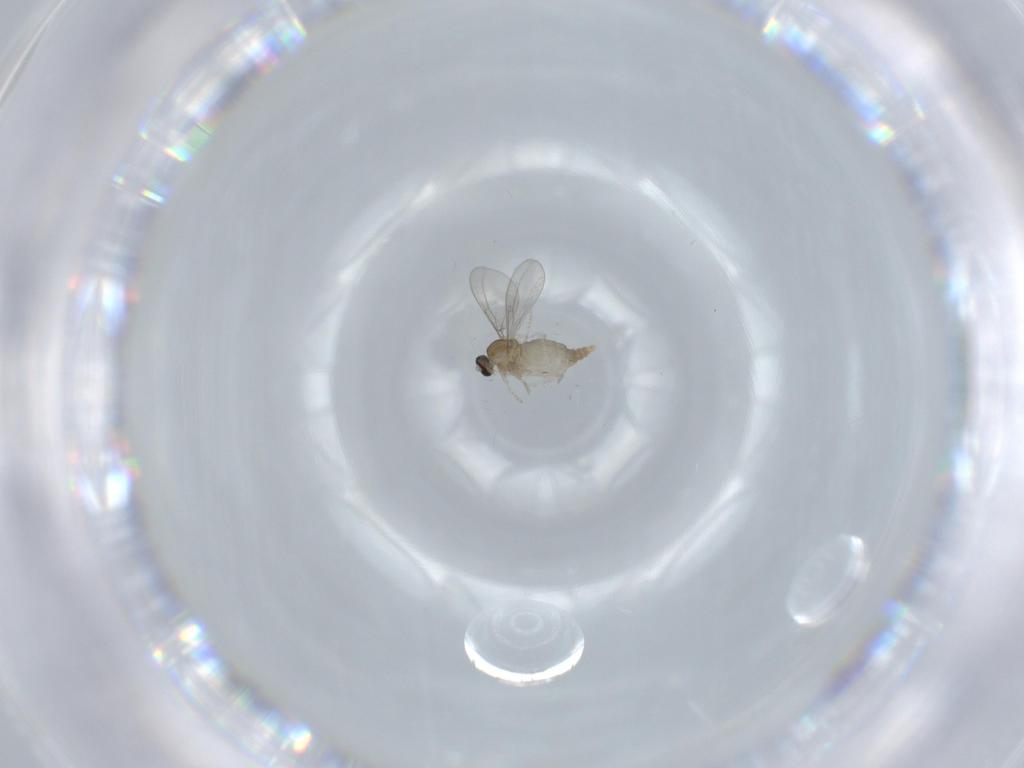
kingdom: Animalia
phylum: Arthropoda
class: Insecta
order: Diptera
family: Cecidomyiidae
